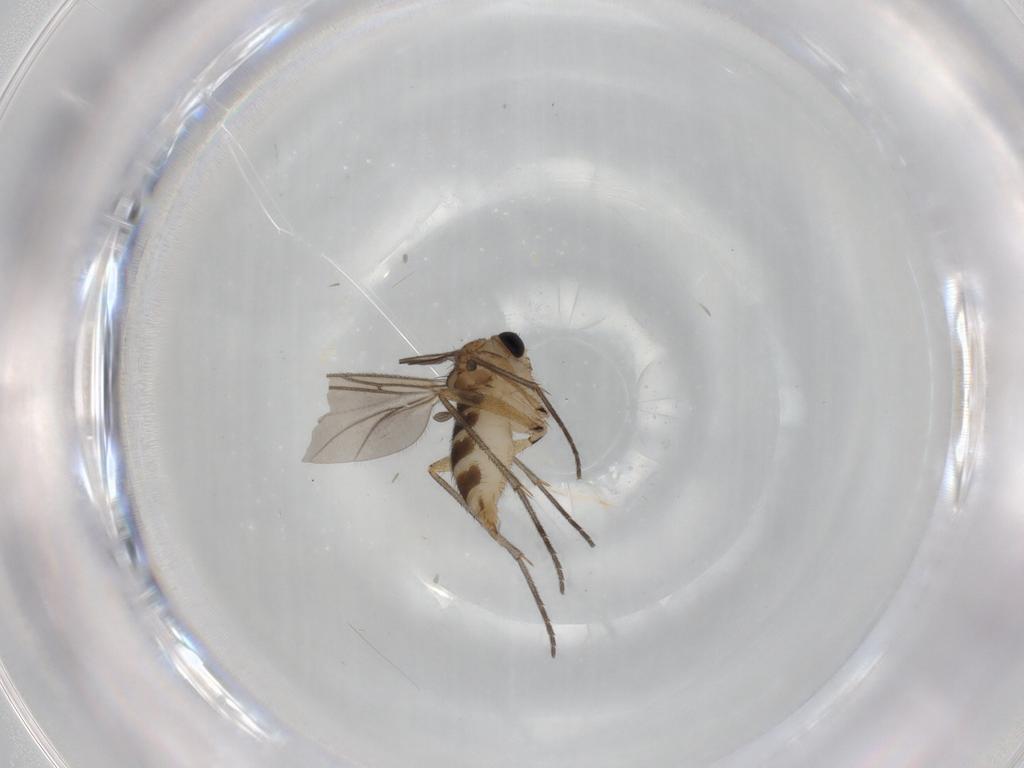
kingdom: Animalia
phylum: Arthropoda
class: Insecta
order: Diptera
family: Sciaridae
